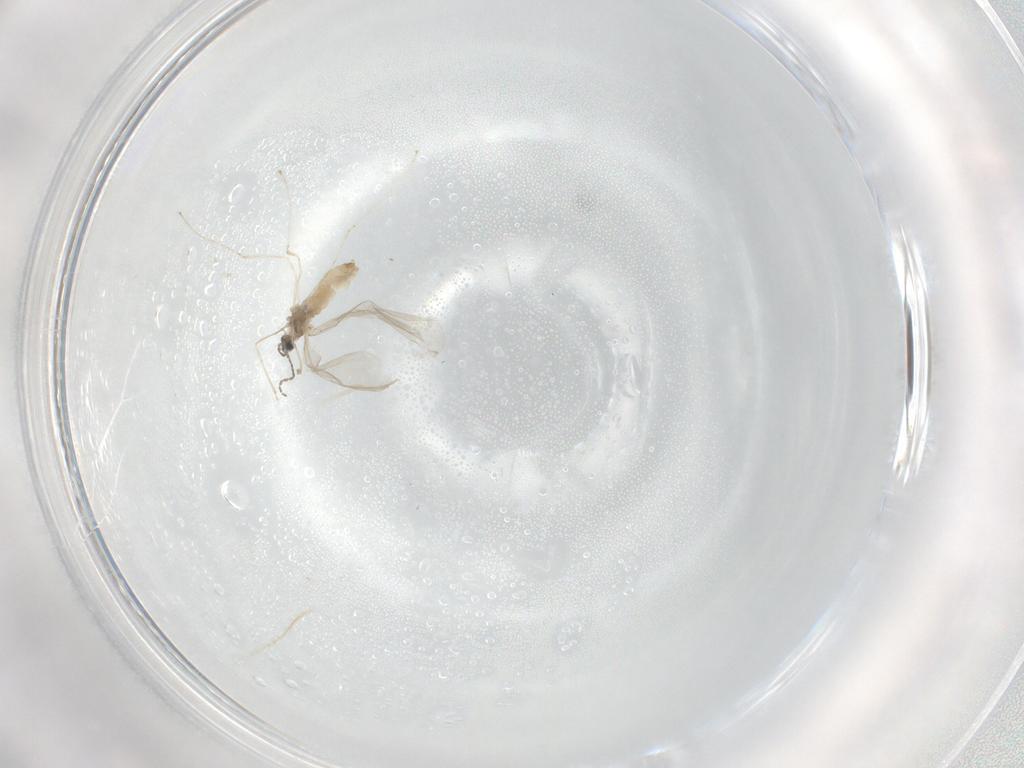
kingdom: Animalia
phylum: Arthropoda
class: Insecta
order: Diptera
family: Cecidomyiidae
